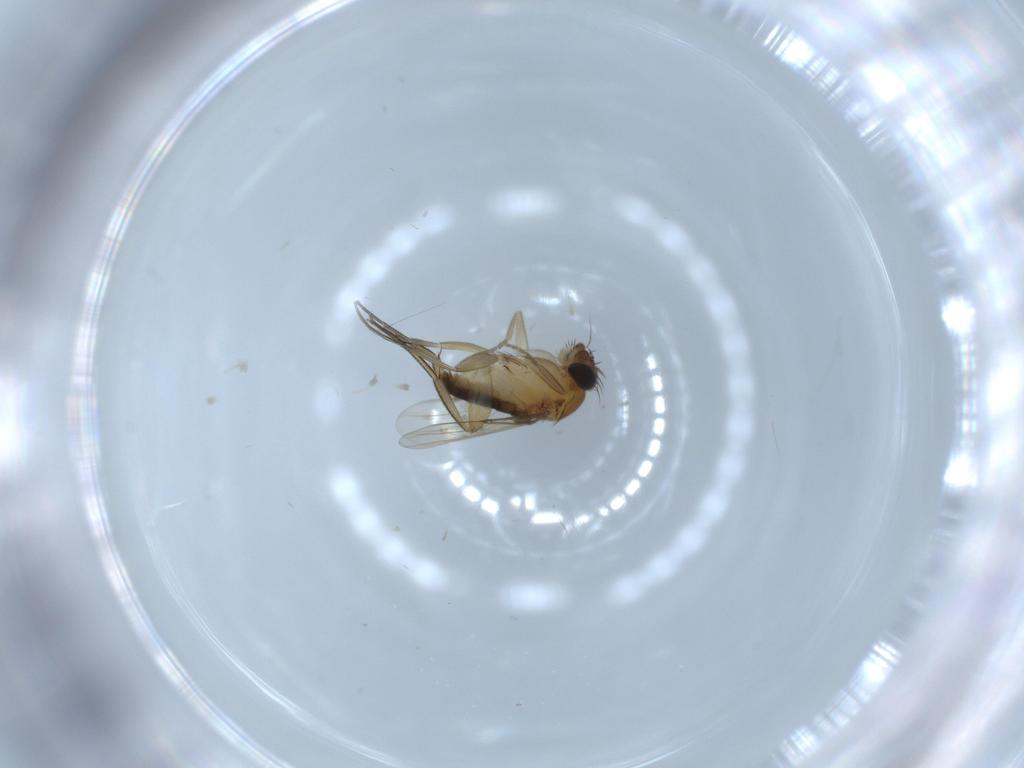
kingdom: Animalia
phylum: Arthropoda
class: Insecta
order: Diptera
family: Phoridae
